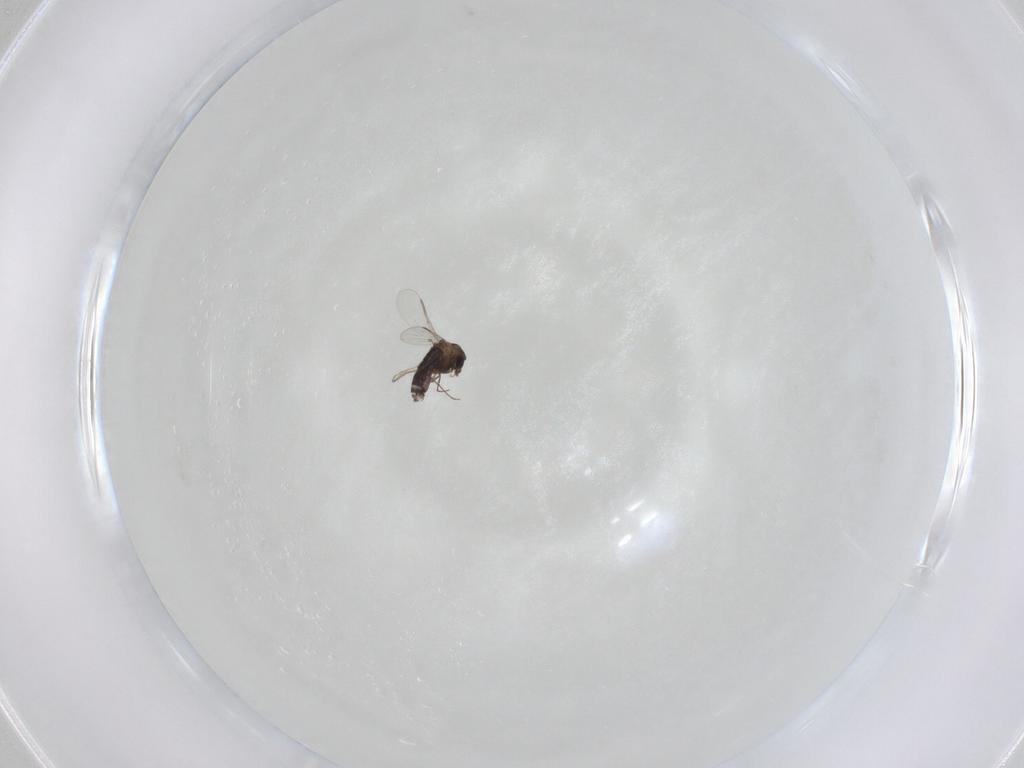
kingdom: Animalia
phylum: Arthropoda
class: Insecta
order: Diptera
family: Chironomidae
